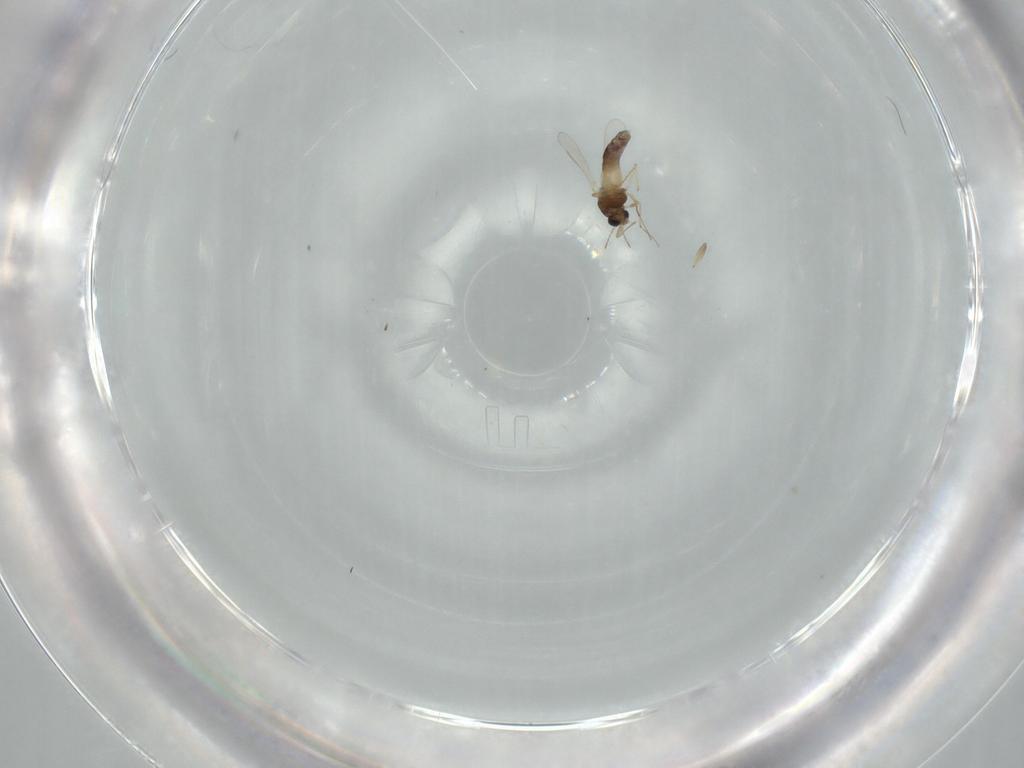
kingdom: Animalia
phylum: Arthropoda
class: Insecta
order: Diptera
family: Chironomidae
